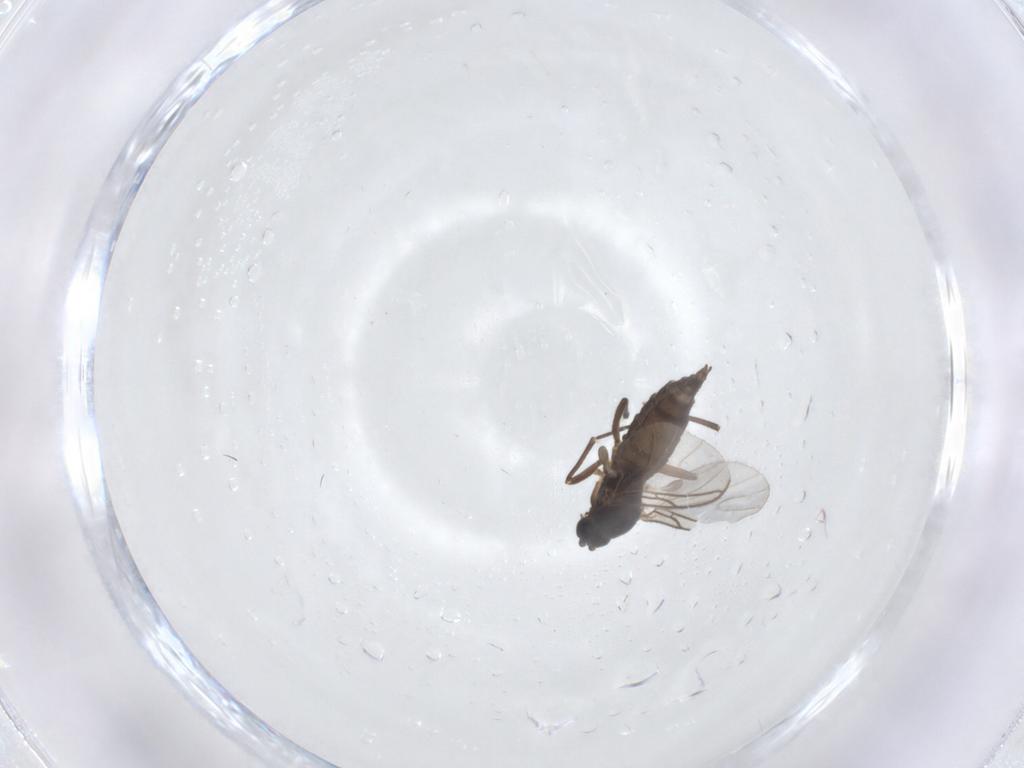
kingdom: Animalia
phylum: Arthropoda
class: Insecta
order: Diptera
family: Sciaridae
